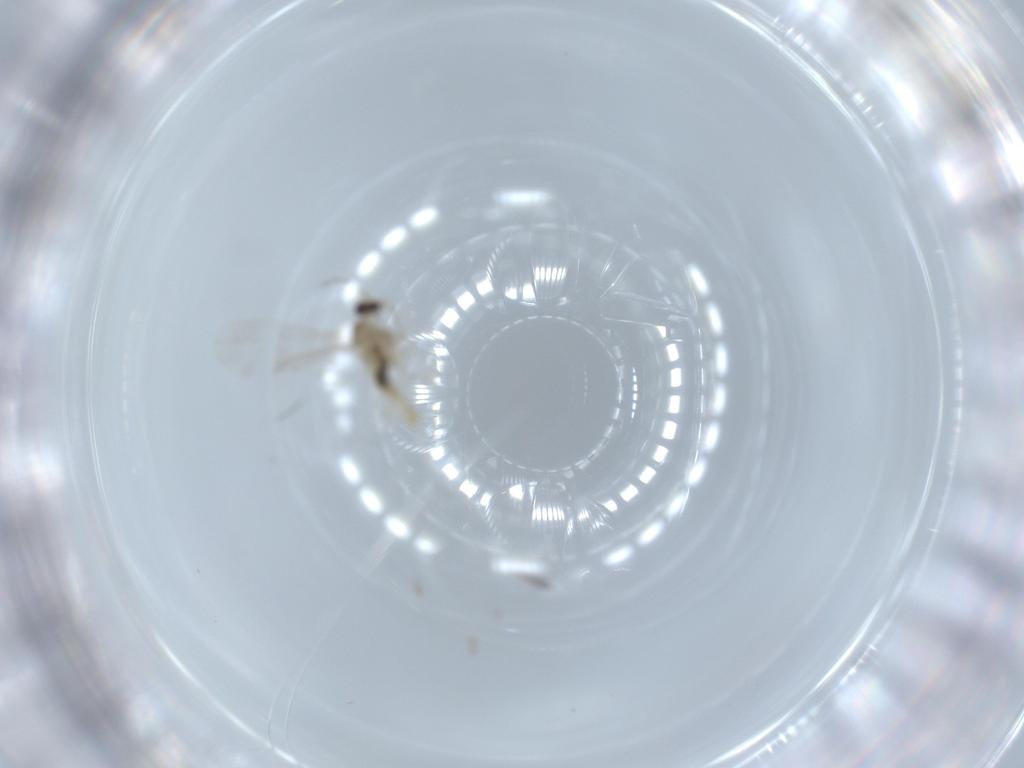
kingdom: Animalia
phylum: Arthropoda
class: Insecta
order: Diptera
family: Cecidomyiidae
